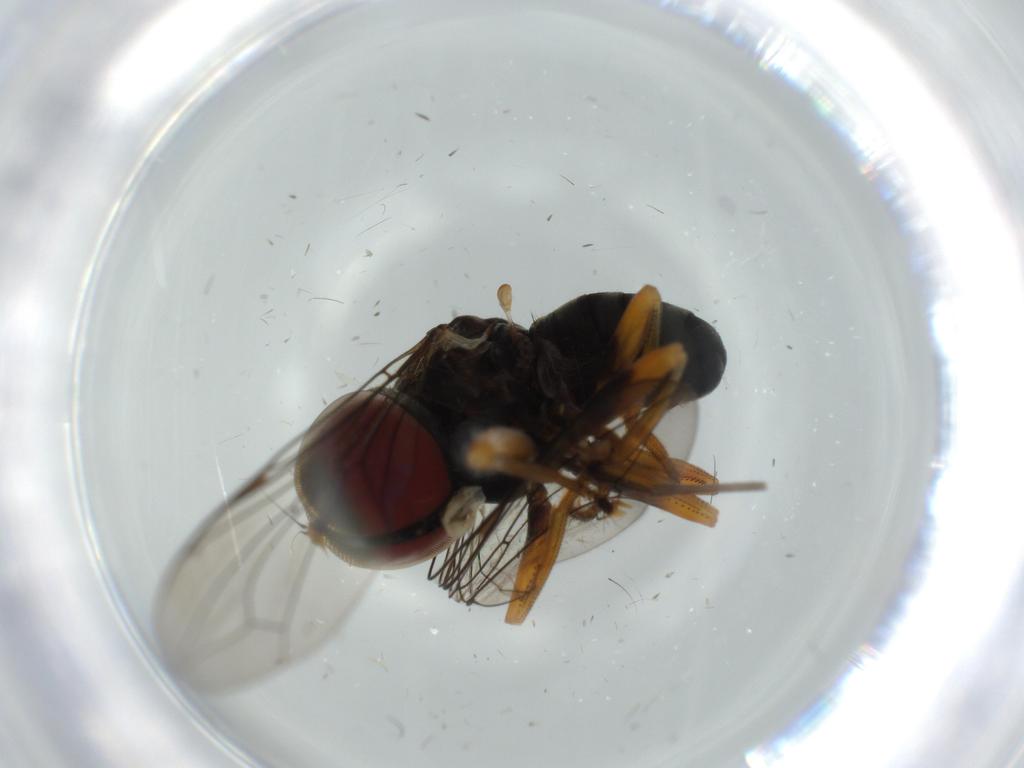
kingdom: Animalia
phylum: Arthropoda
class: Insecta
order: Diptera
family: Sciaridae
